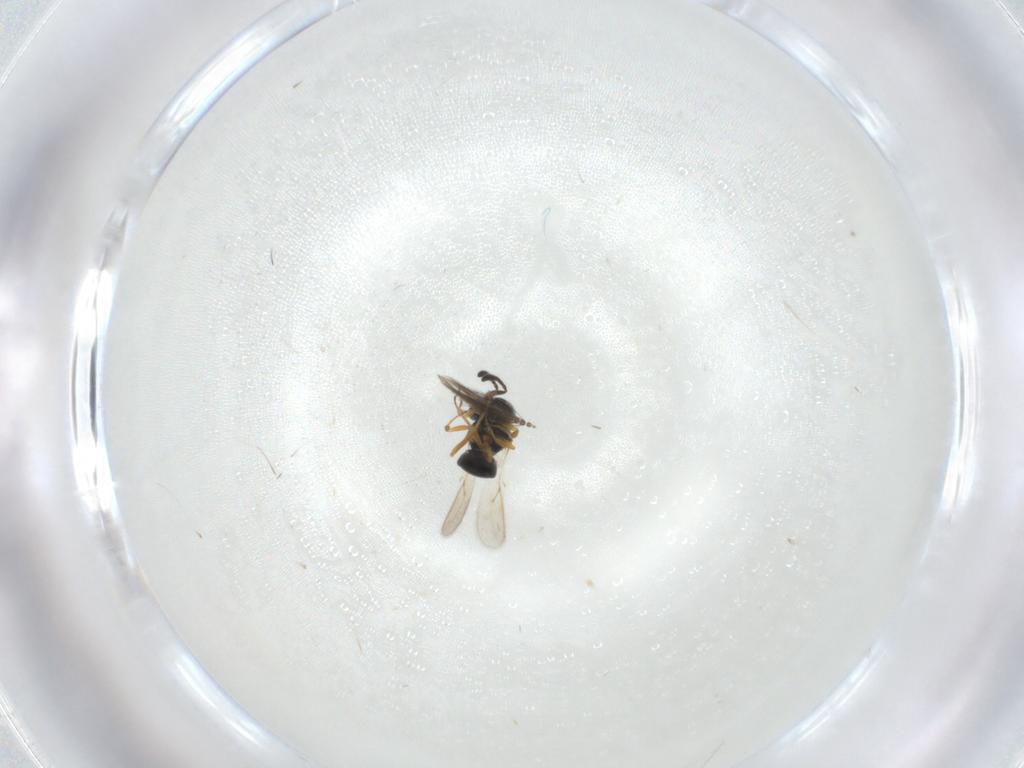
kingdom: Animalia
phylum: Arthropoda
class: Insecta
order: Hymenoptera
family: Scelionidae
